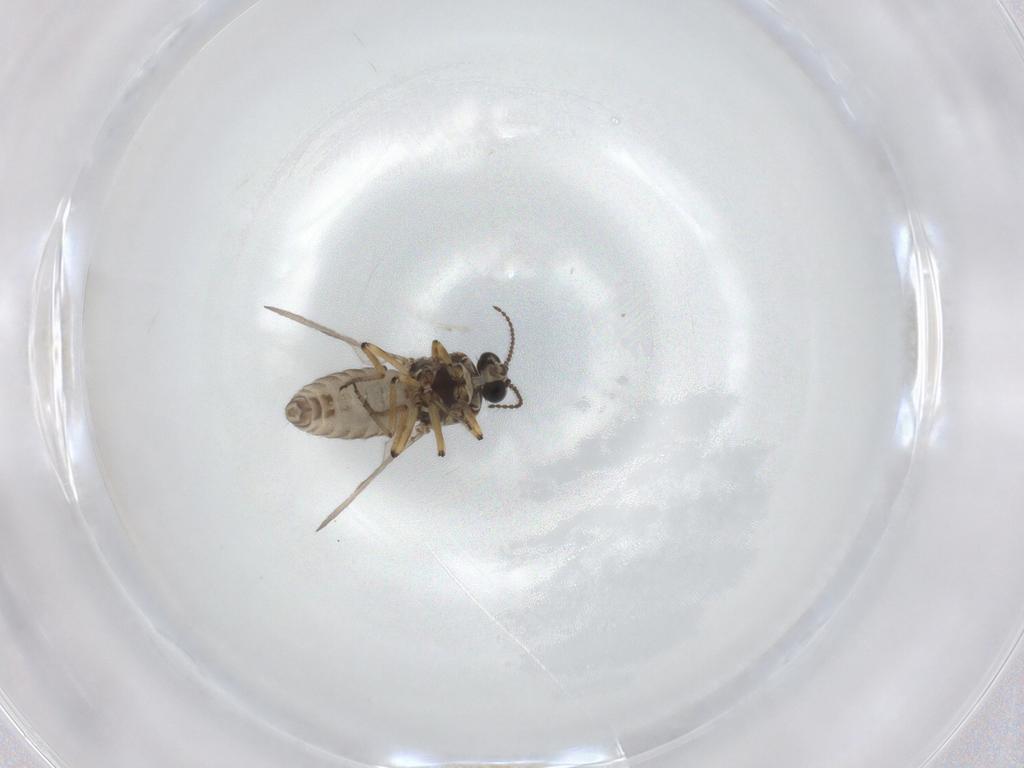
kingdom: Animalia
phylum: Arthropoda
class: Insecta
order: Diptera
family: Ceratopogonidae
